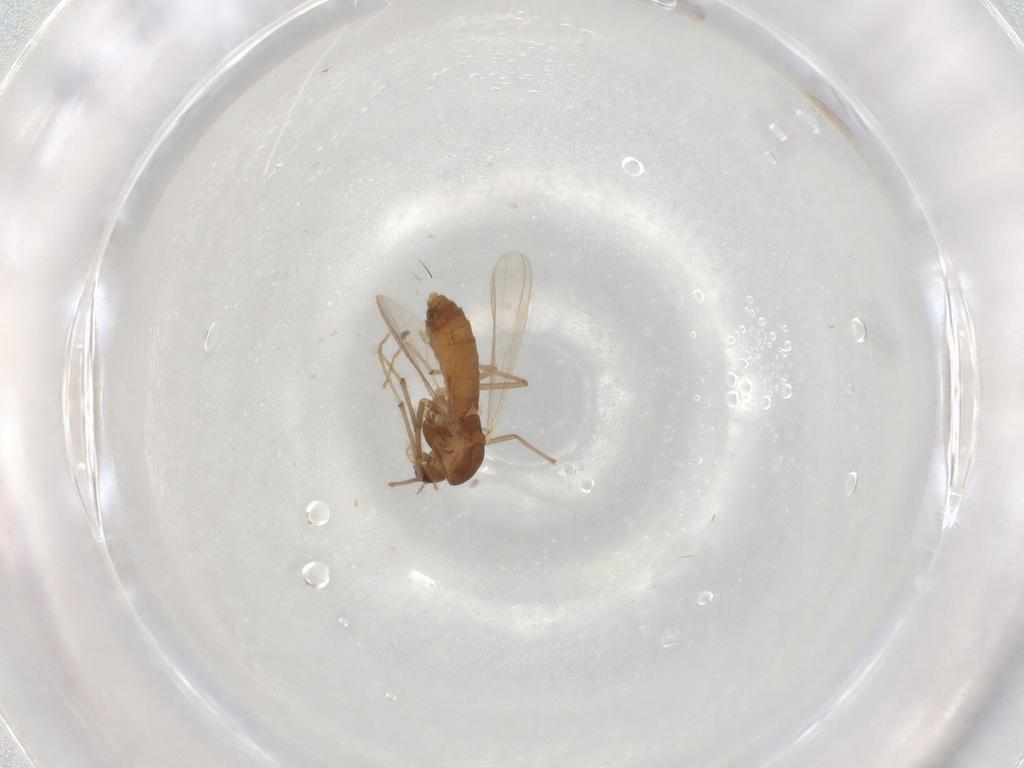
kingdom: Animalia
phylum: Arthropoda
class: Insecta
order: Diptera
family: Chironomidae
